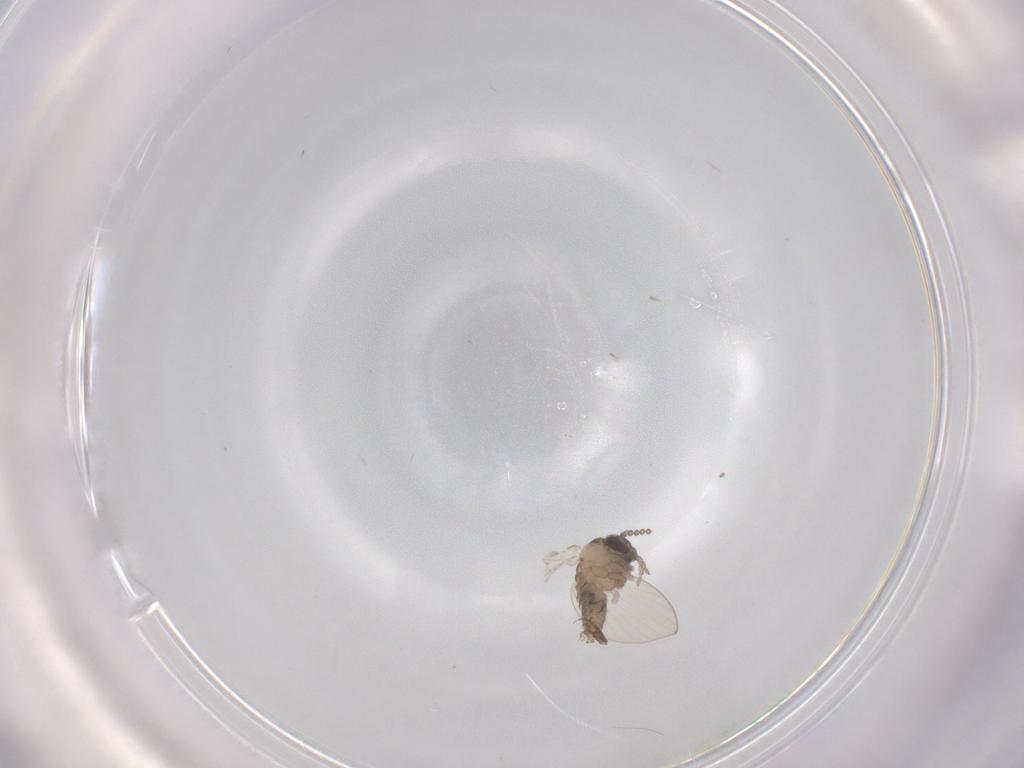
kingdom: Animalia
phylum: Arthropoda
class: Insecta
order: Diptera
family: Psychodidae
